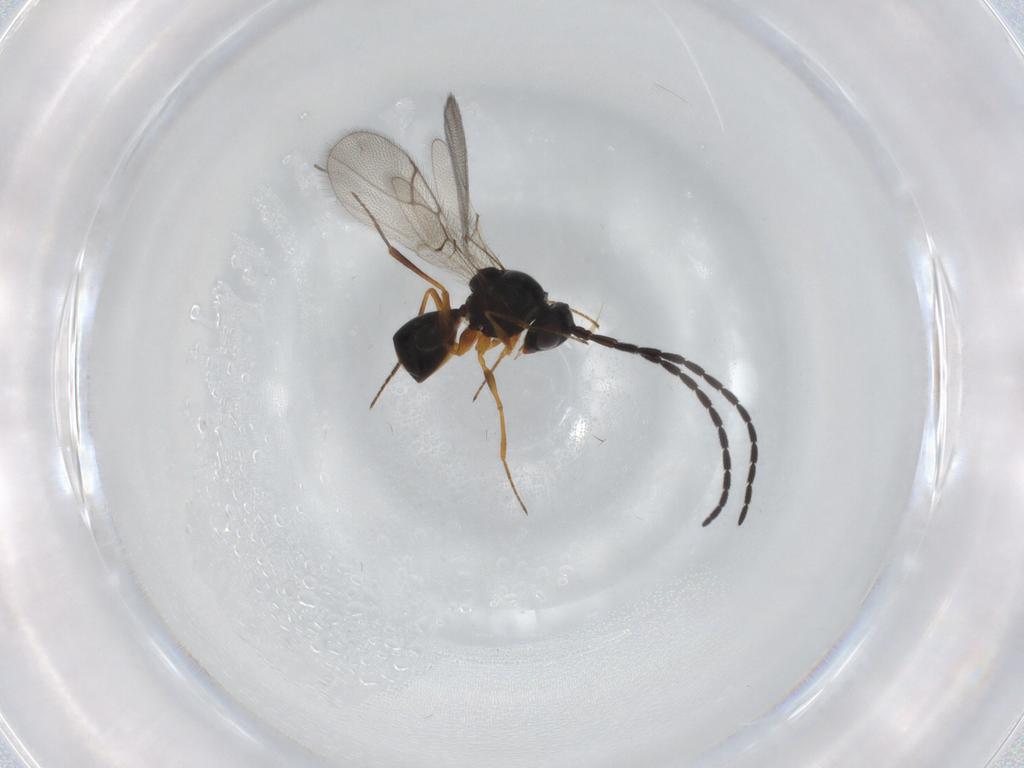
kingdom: Animalia
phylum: Arthropoda
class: Insecta
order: Hymenoptera
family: Figitidae
